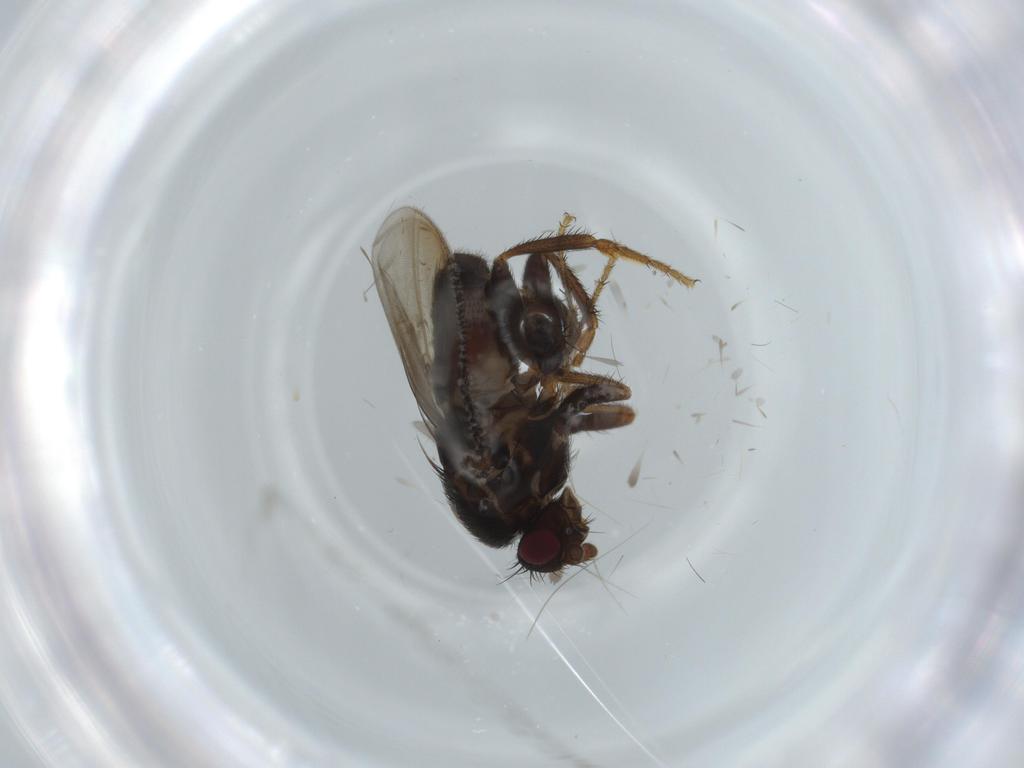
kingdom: Animalia
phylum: Arthropoda
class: Insecta
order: Diptera
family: Sphaeroceridae
